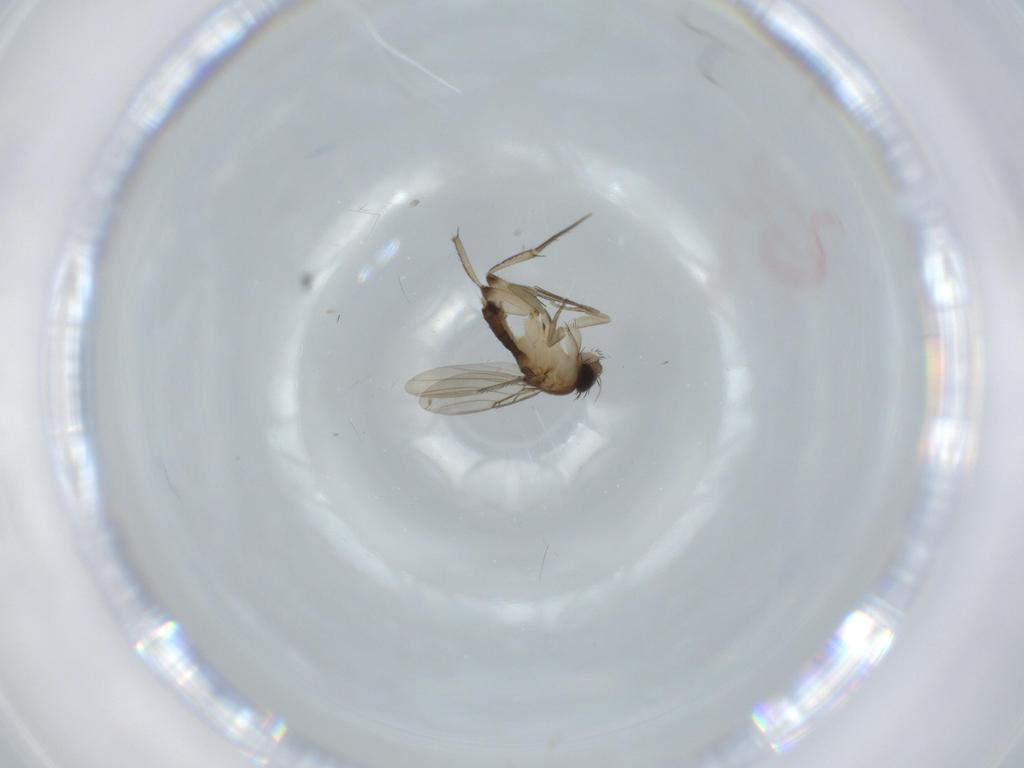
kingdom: Animalia
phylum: Arthropoda
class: Insecta
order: Diptera
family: Phoridae
